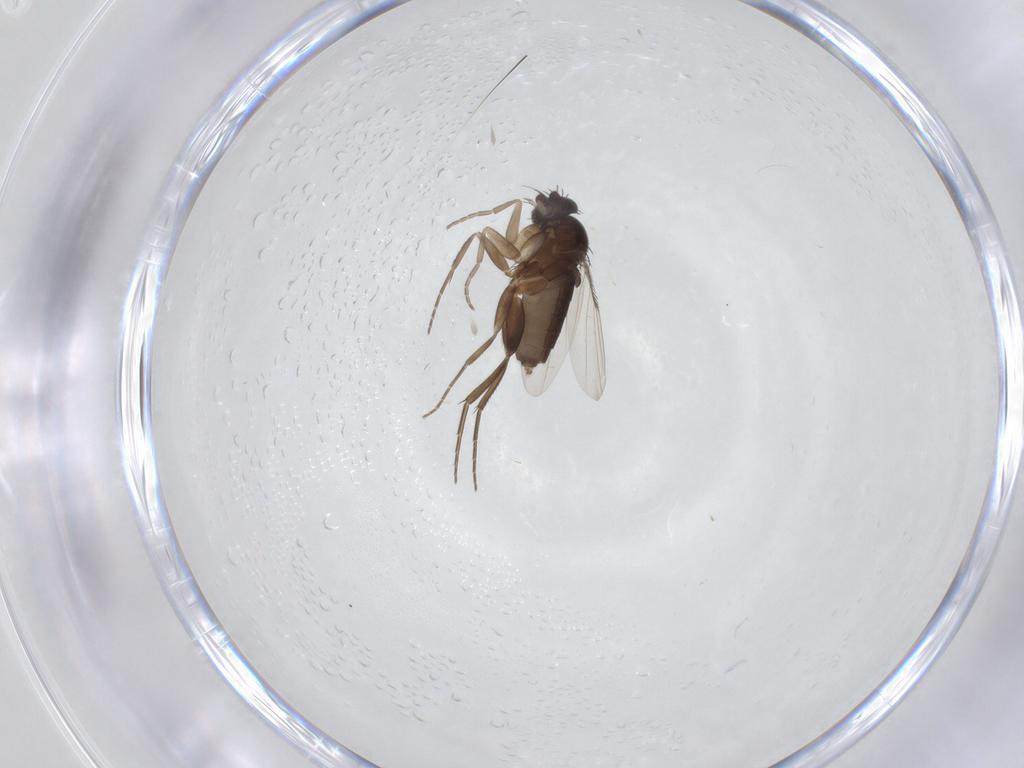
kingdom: Animalia
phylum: Arthropoda
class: Insecta
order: Diptera
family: Phoridae
